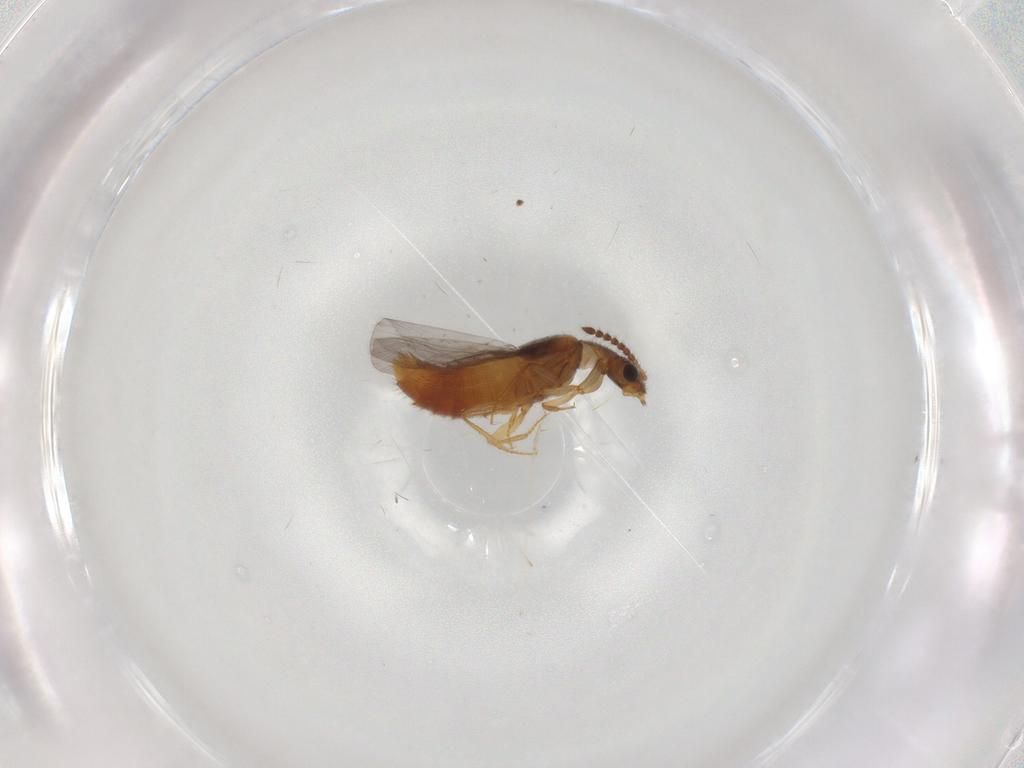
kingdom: Animalia
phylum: Arthropoda
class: Insecta
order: Coleoptera
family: Staphylinidae
